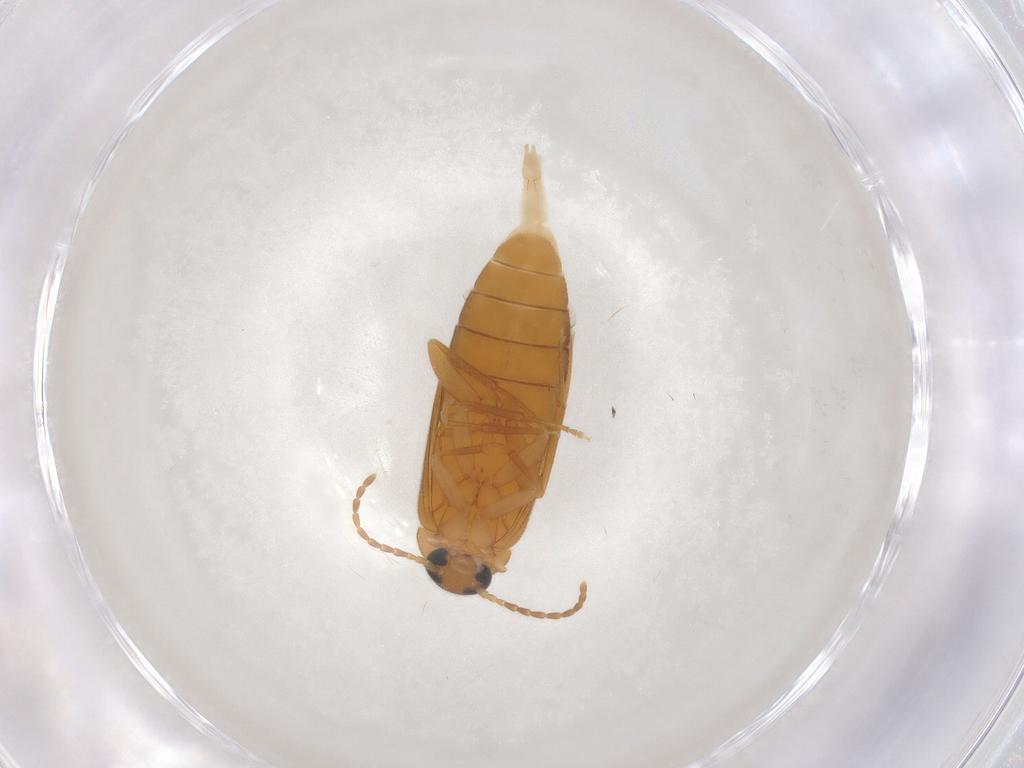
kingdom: Animalia
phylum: Arthropoda
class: Insecta
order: Coleoptera
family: Scraptiidae
